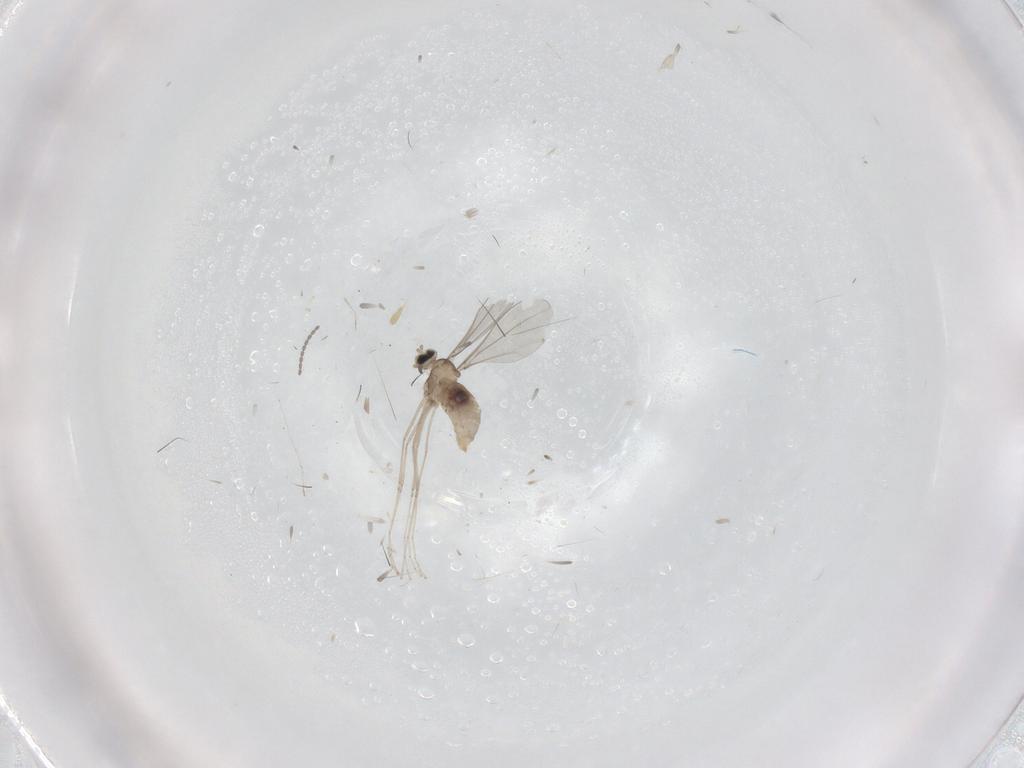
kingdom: Animalia
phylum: Arthropoda
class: Insecta
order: Diptera
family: Cecidomyiidae
